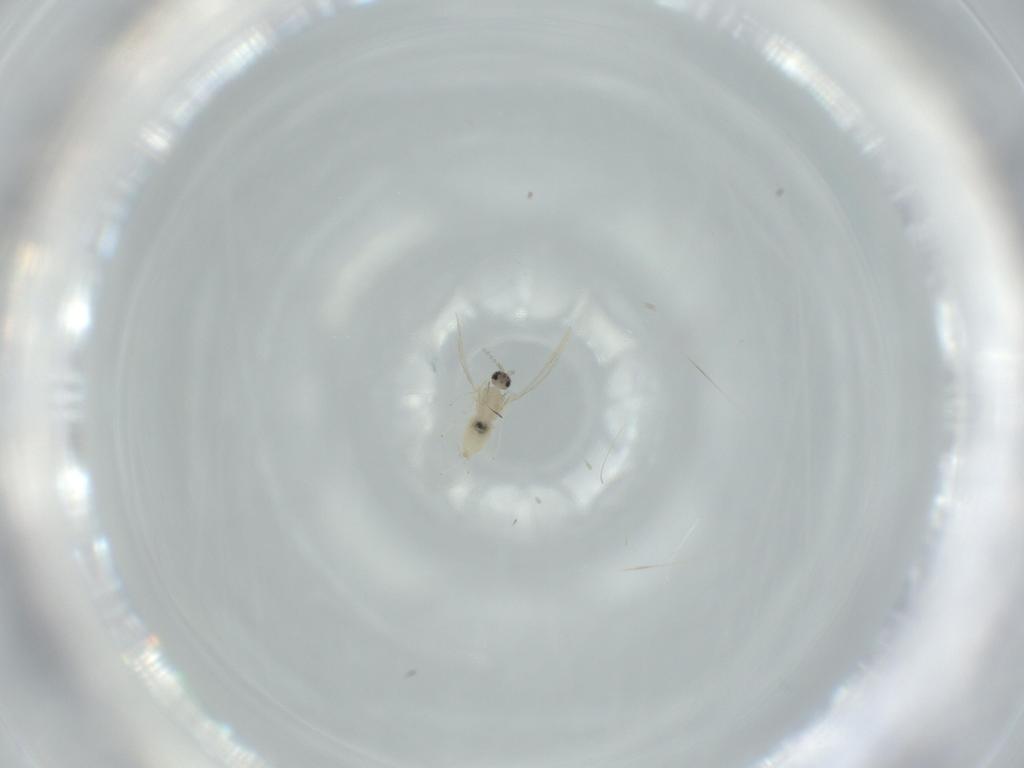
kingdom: Animalia
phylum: Arthropoda
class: Insecta
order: Diptera
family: Cecidomyiidae
